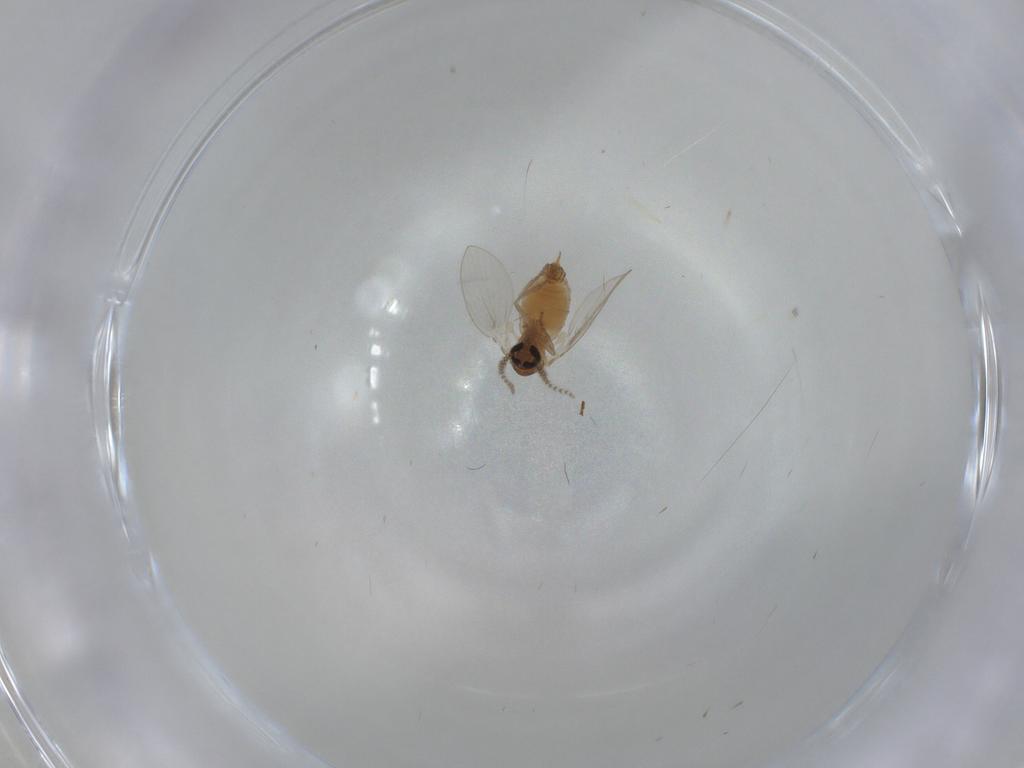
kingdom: Animalia
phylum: Arthropoda
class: Insecta
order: Diptera
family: Psychodidae
